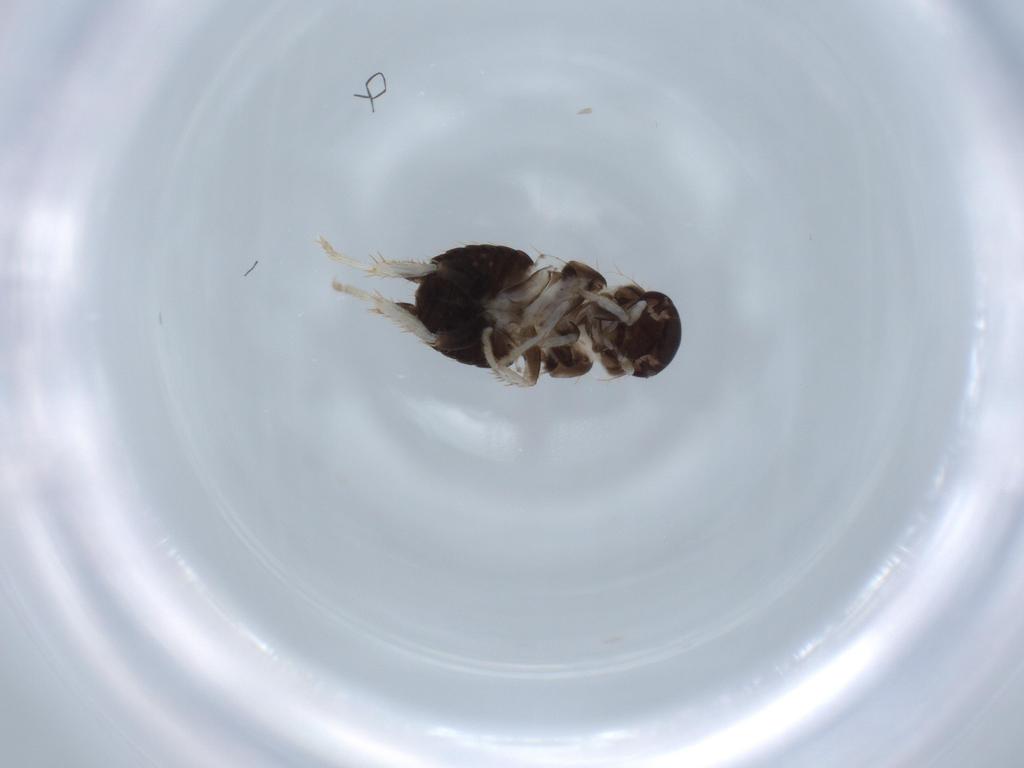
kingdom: Animalia
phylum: Arthropoda
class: Insecta
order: Blattodea
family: Ectobiidae
